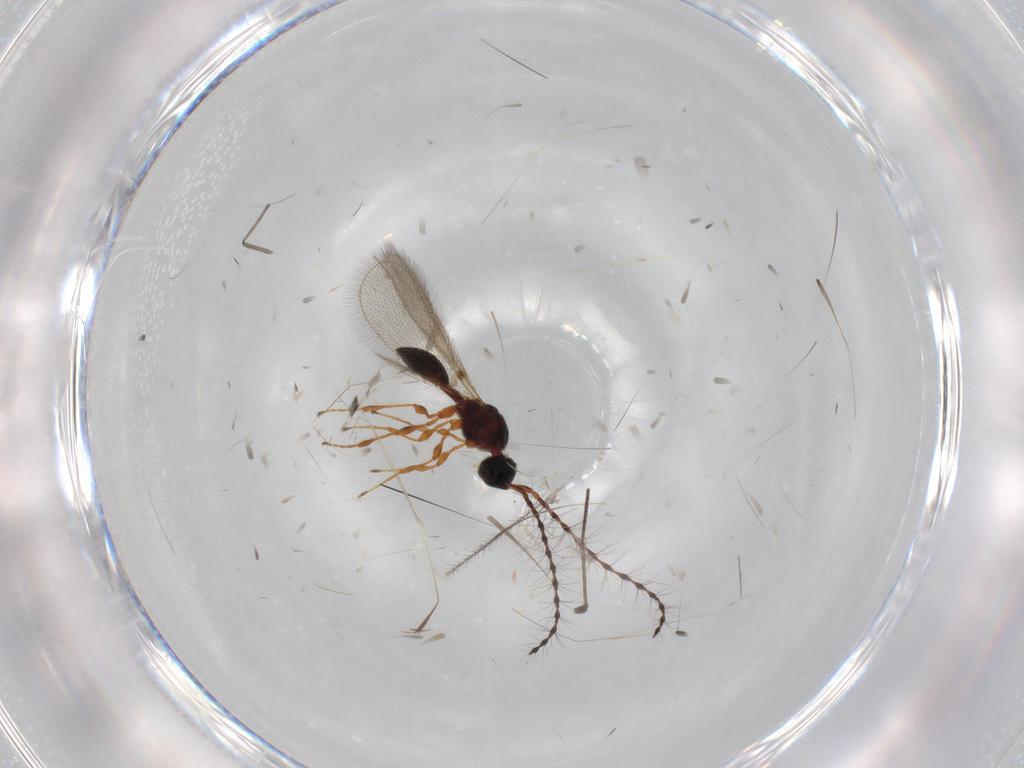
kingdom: Animalia
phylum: Arthropoda
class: Insecta
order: Hymenoptera
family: Diapriidae
